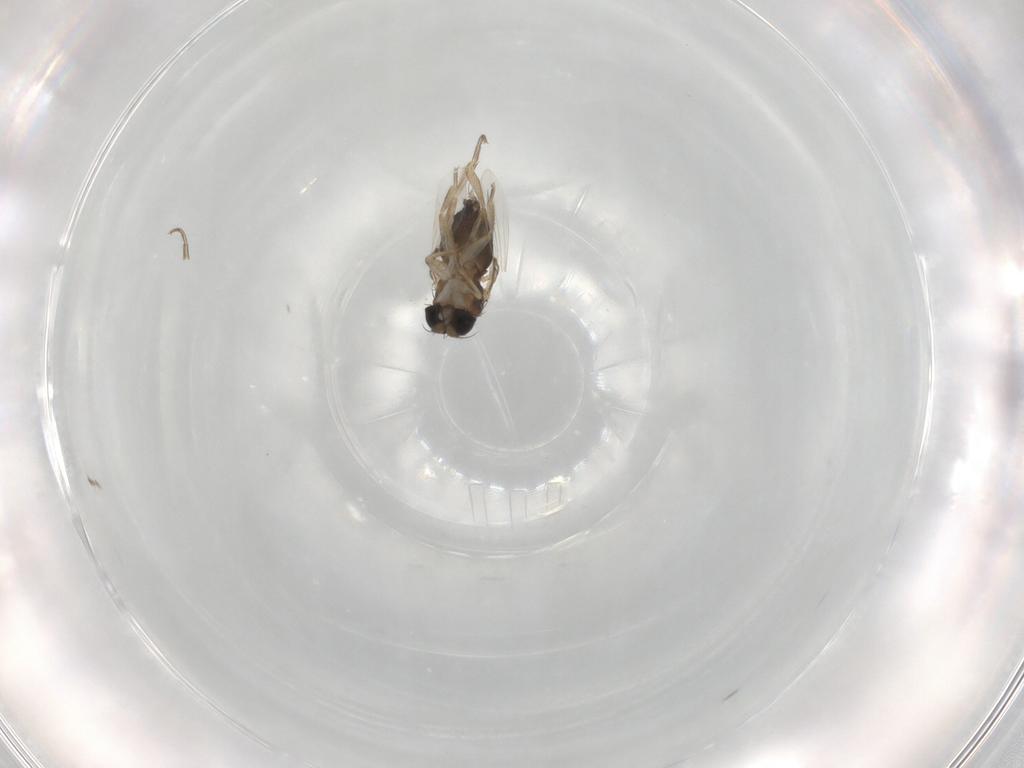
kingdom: Animalia
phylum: Arthropoda
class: Insecta
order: Diptera
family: Phoridae
